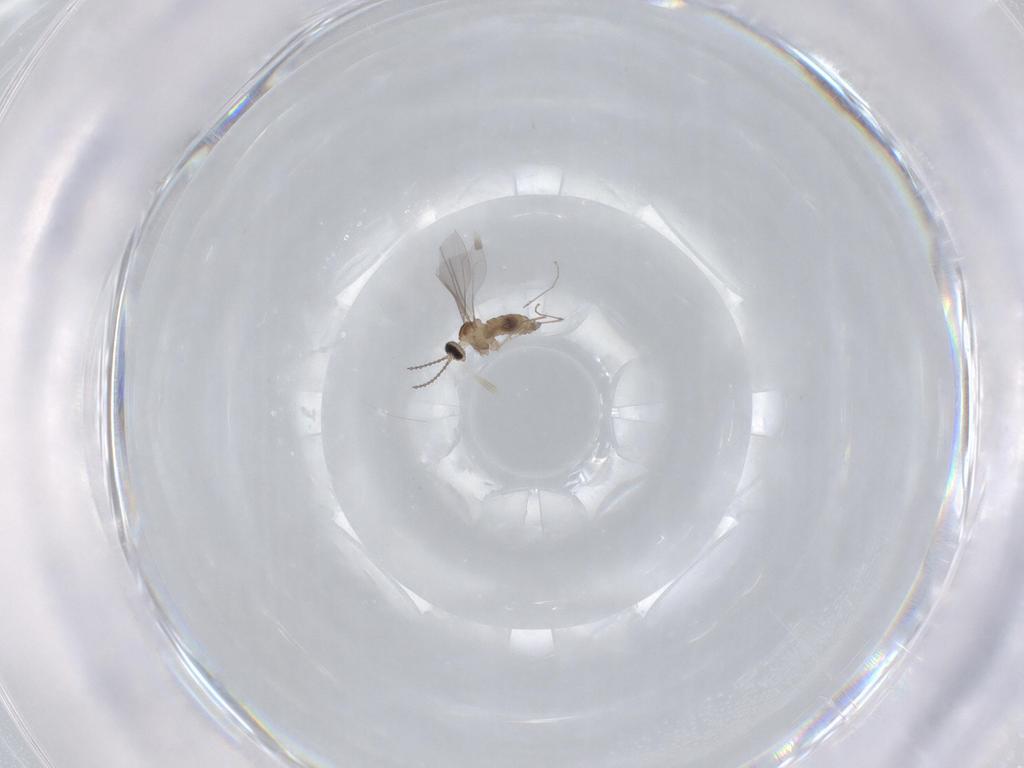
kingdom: Animalia
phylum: Arthropoda
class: Insecta
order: Diptera
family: Cecidomyiidae
